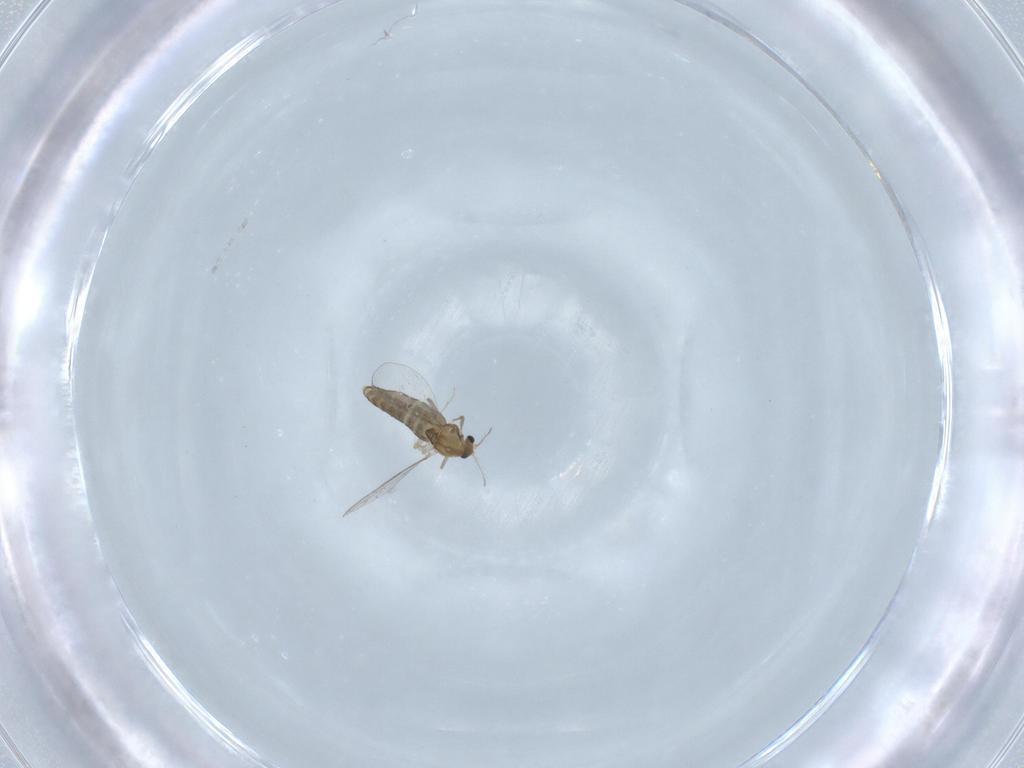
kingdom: Animalia
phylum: Arthropoda
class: Insecta
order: Diptera
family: Chironomidae
